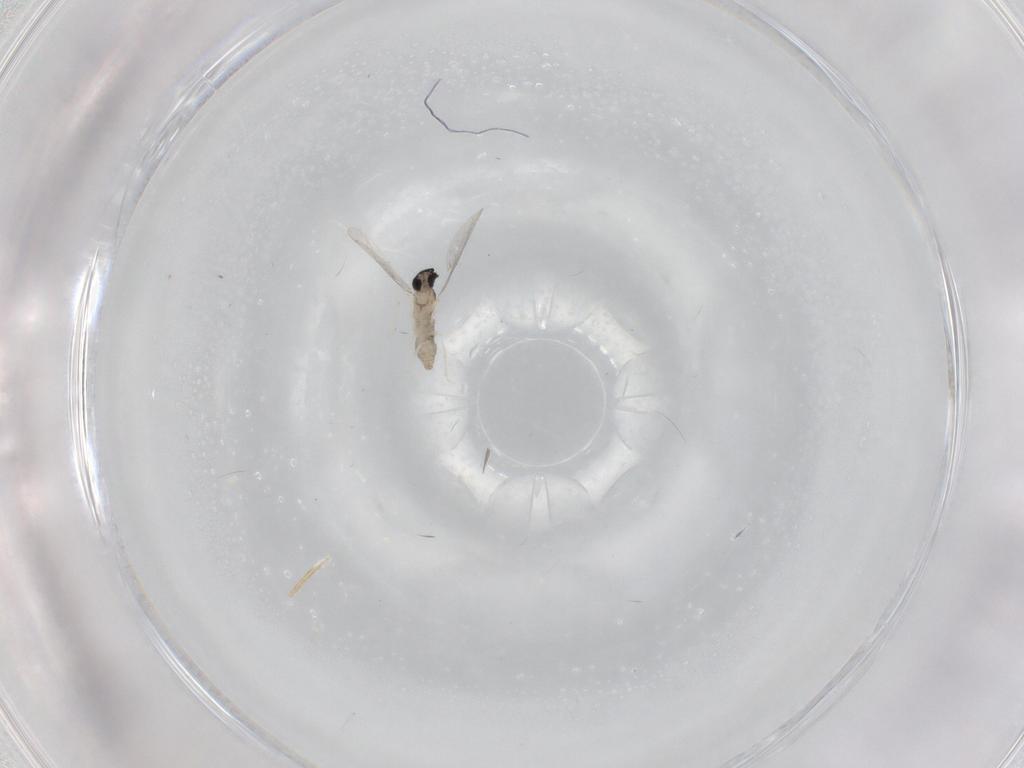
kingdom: Animalia
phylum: Arthropoda
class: Insecta
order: Diptera
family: Cecidomyiidae
